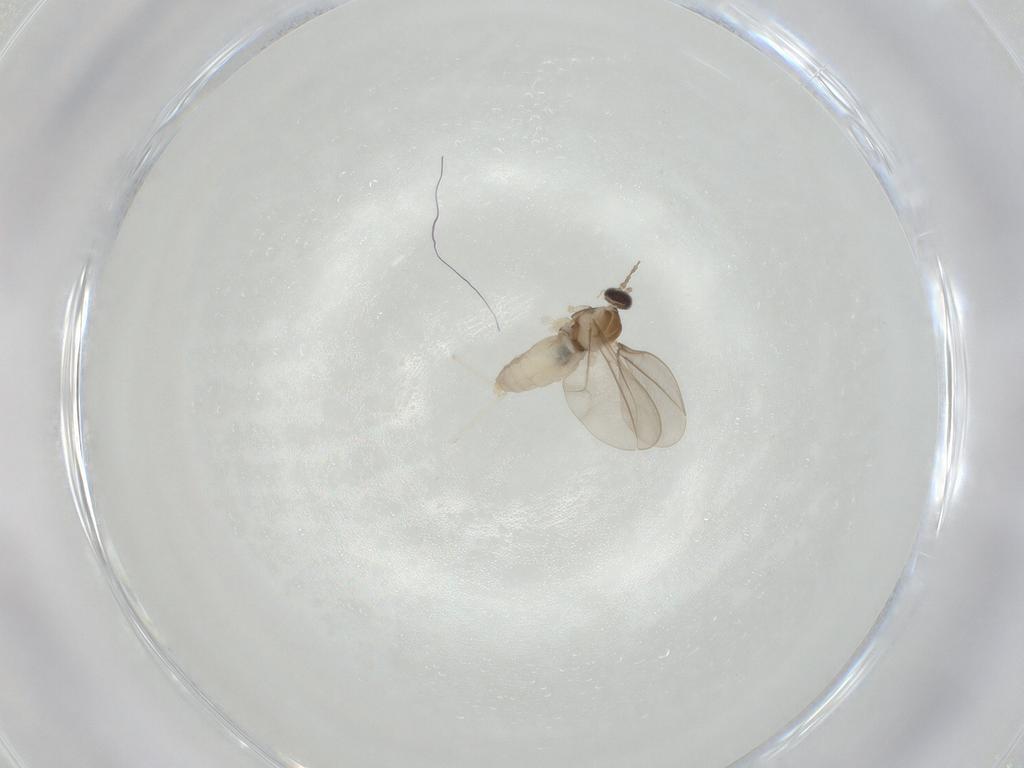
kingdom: Animalia
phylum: Arthropoda
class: Insecta
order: Diptera
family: Cecidomyiidae
